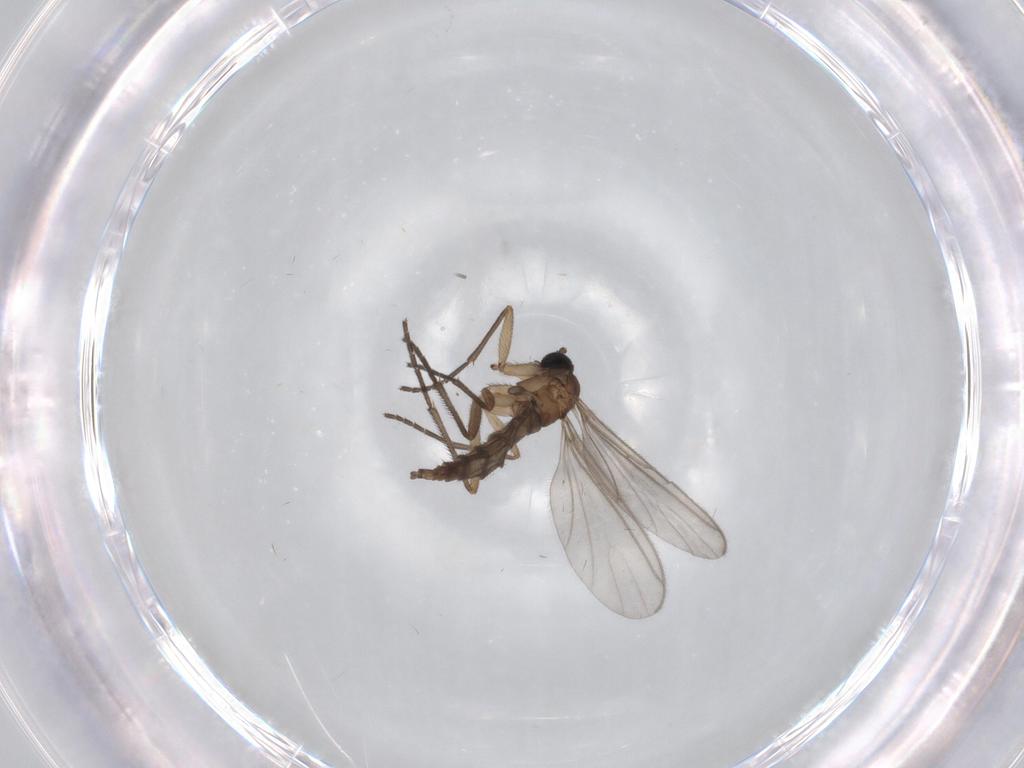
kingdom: Animalia
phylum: Arthropoda
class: Insecta
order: Diptera
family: Sciaridae
